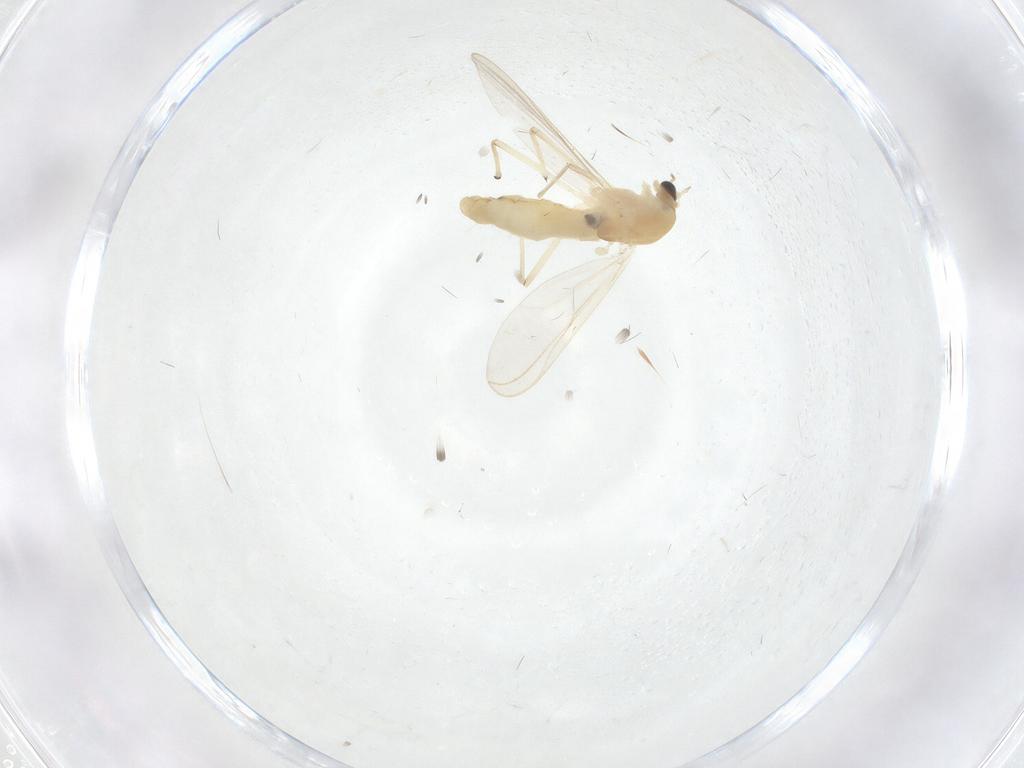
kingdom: Animalia
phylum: Arthropoda
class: Insecta
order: Diptera
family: Chironomidae
